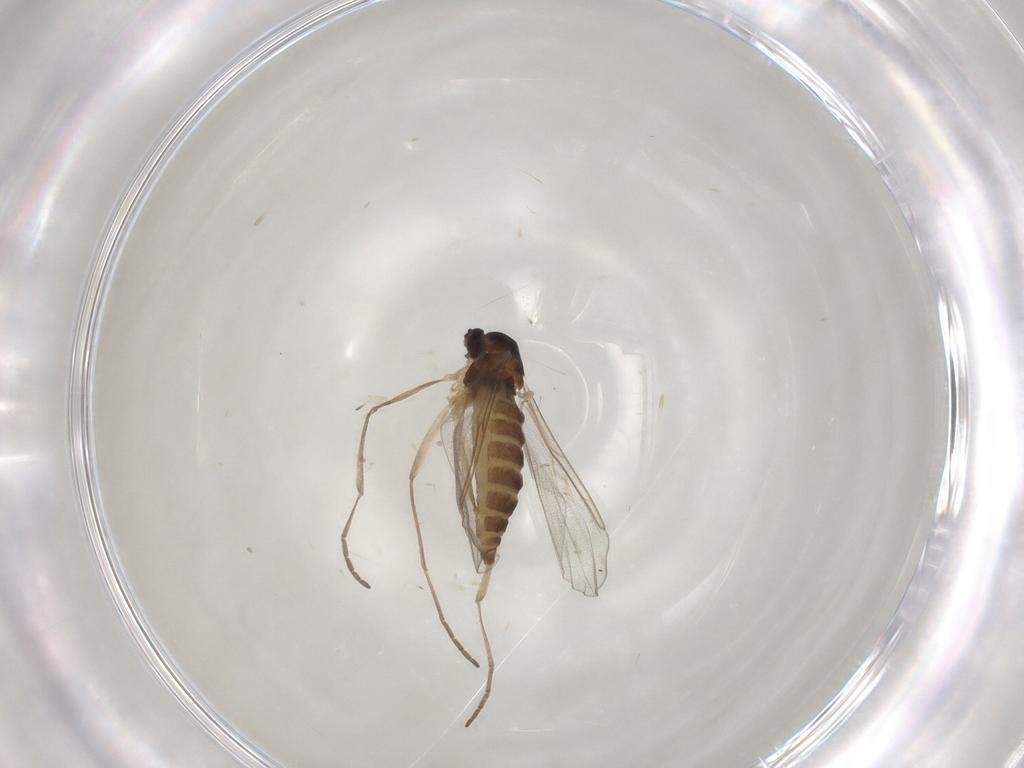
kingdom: Animalia
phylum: Arthropoda
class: Insecta
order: Diptera
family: Cecidomyiidae
